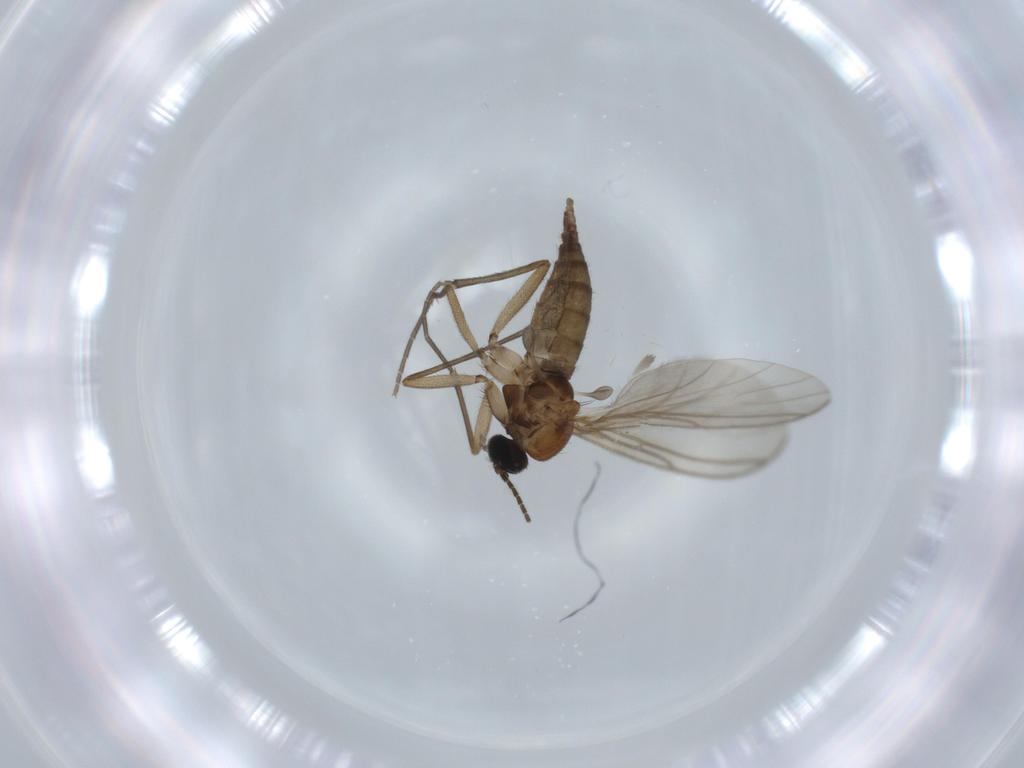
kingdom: Animalia
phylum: Arthropoda
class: Insecta
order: Diptera
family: Sciaridae
